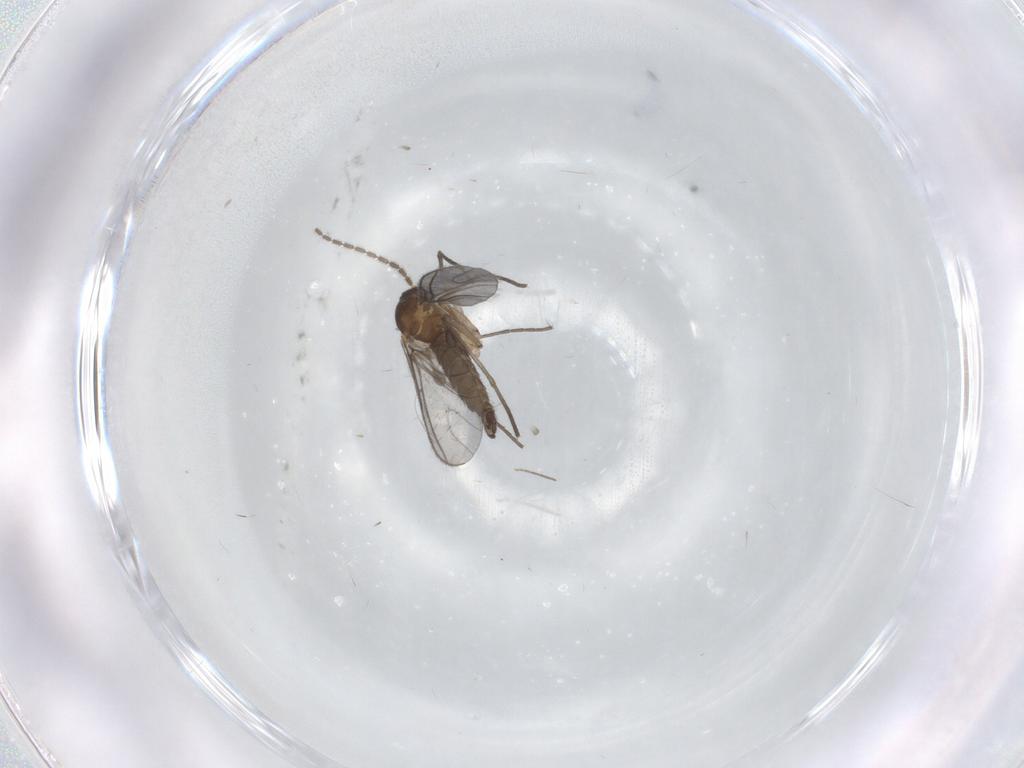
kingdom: Animalia
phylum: Arthropoda
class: Insecta
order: Diptera
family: Chironomidae
